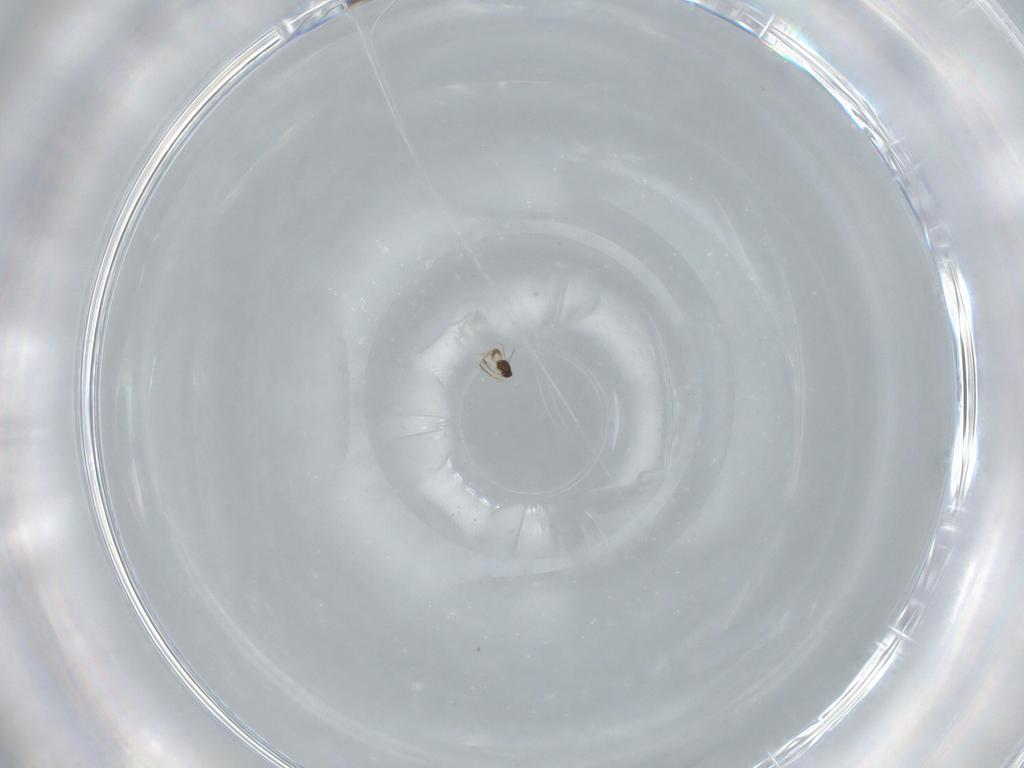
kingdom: Animalia
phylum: Arthropoda
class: Insecta
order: Hymenoptera
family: Mymaridae
